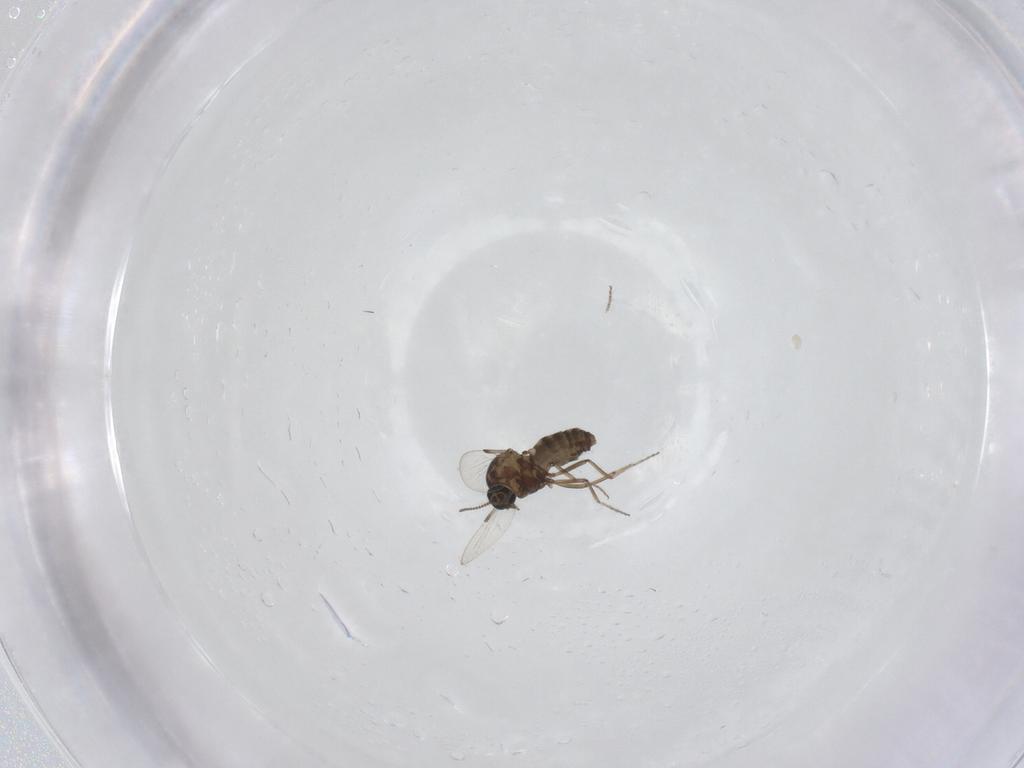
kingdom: Animalia
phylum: Arthropoda
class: Insecta
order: Diptera
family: Ceratopogonidae
